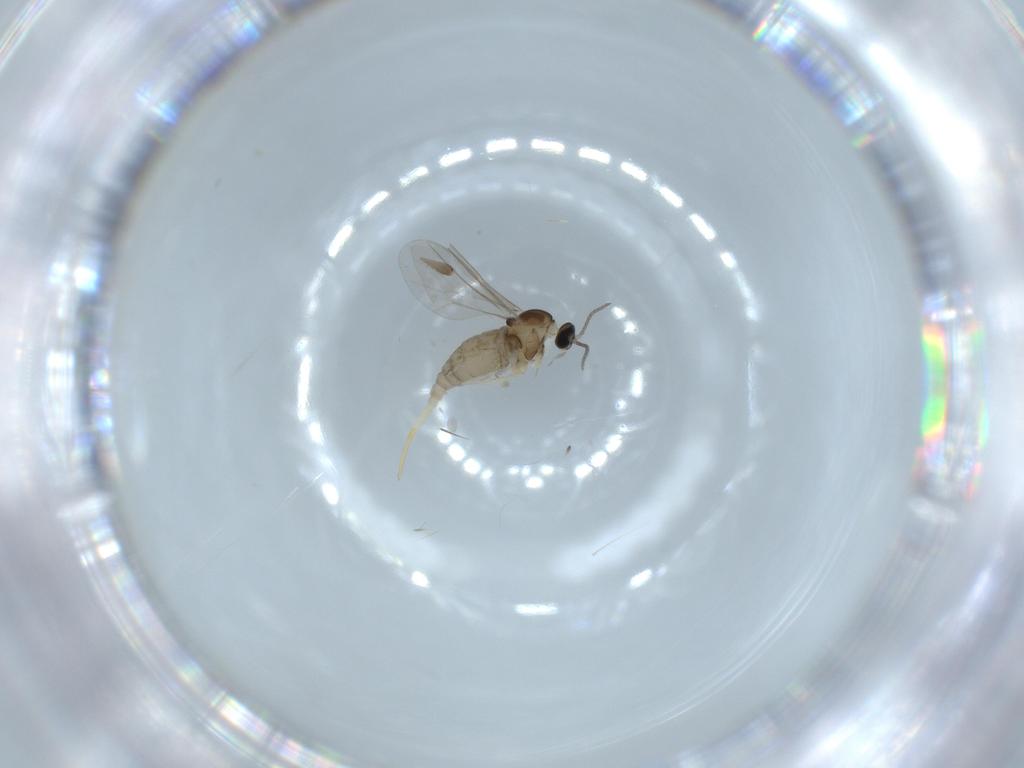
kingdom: Animalia
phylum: Arthropoda
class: Insecta
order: Diptera
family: Cecidomyiidae
